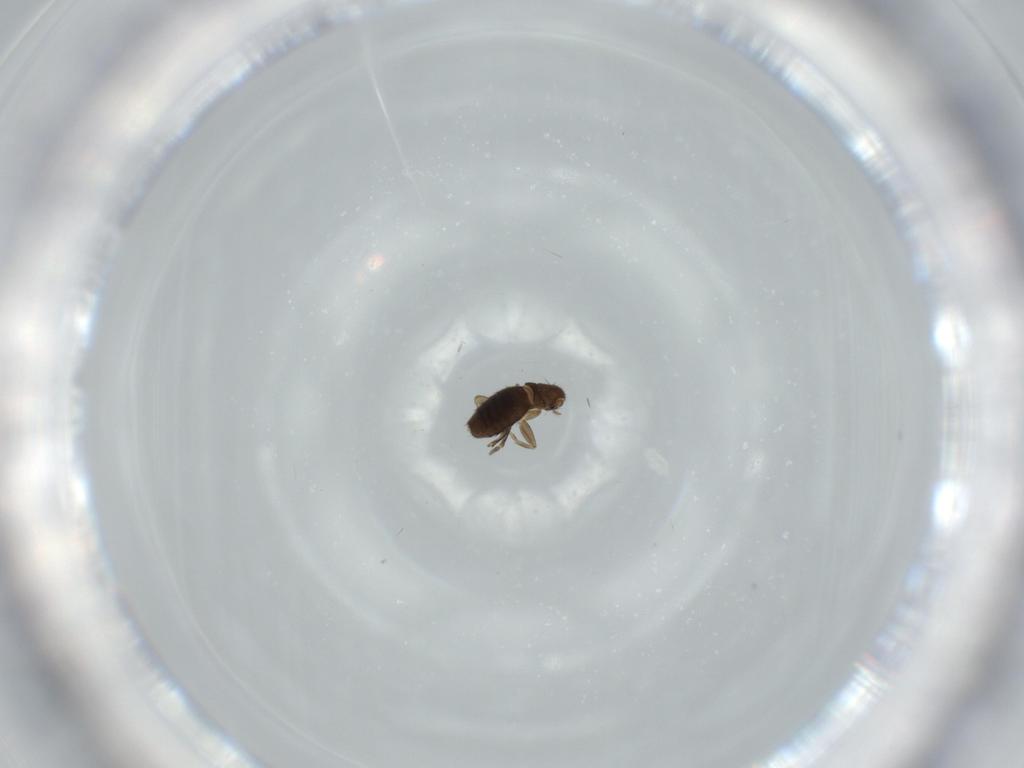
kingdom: Animalia
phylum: Arthropoda
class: Insecta
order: Diptera
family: Phoridae
